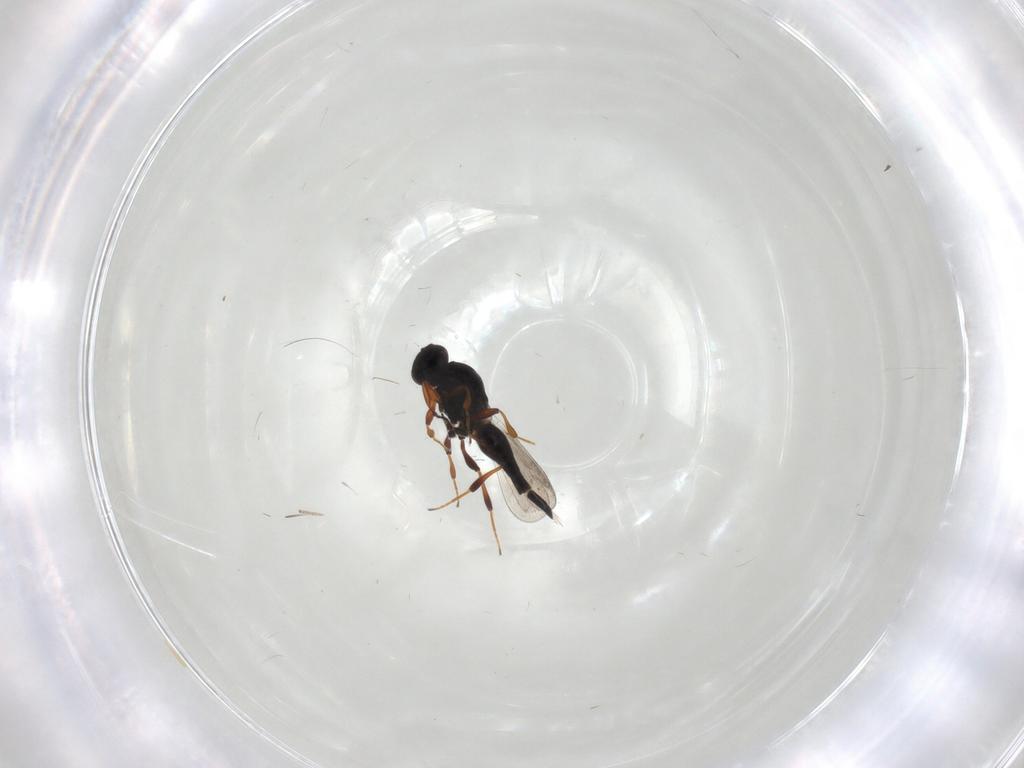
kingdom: Animalia
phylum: Arthropoda
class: Insecta
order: Hymenoptera
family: Platygastridae
